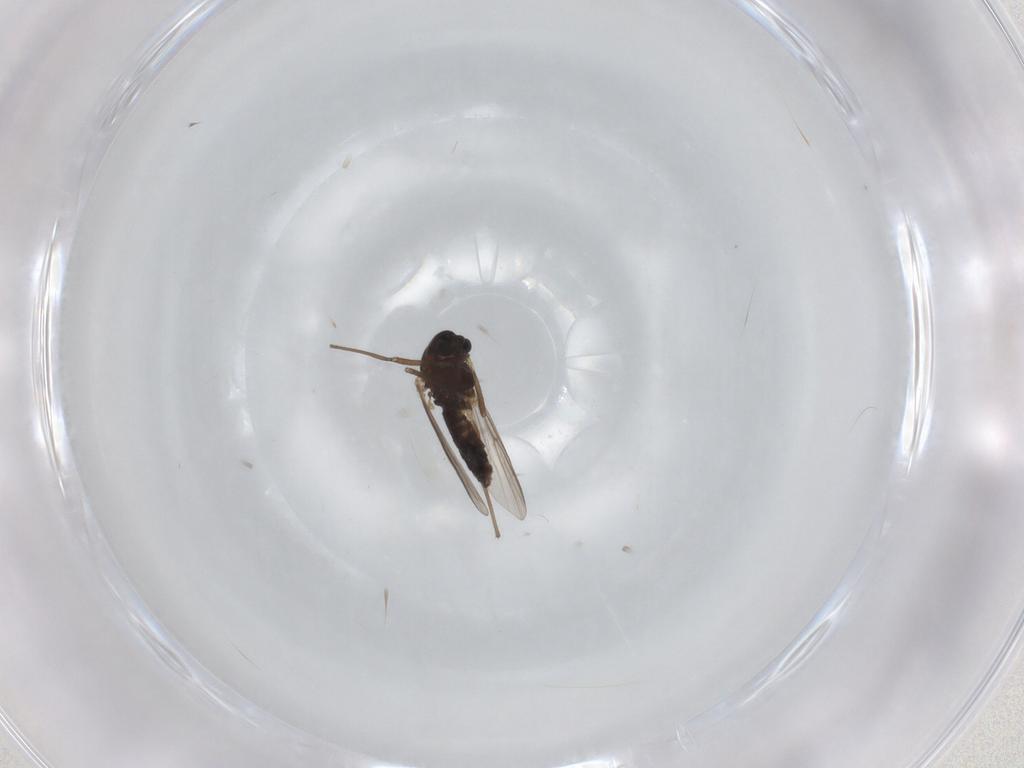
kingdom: Animalia
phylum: Arthropoda
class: Insecta
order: Diptera
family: Chironomidae
